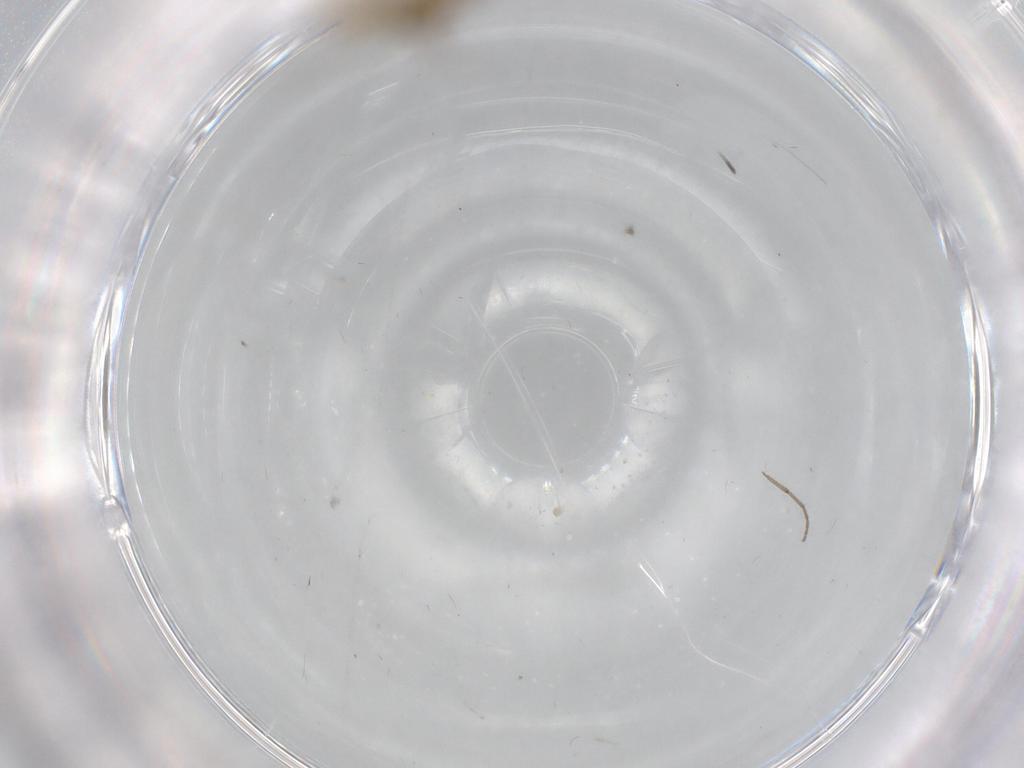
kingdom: Animalia
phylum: Arthropoda
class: Insecta
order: Diptera
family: Chironomidae
